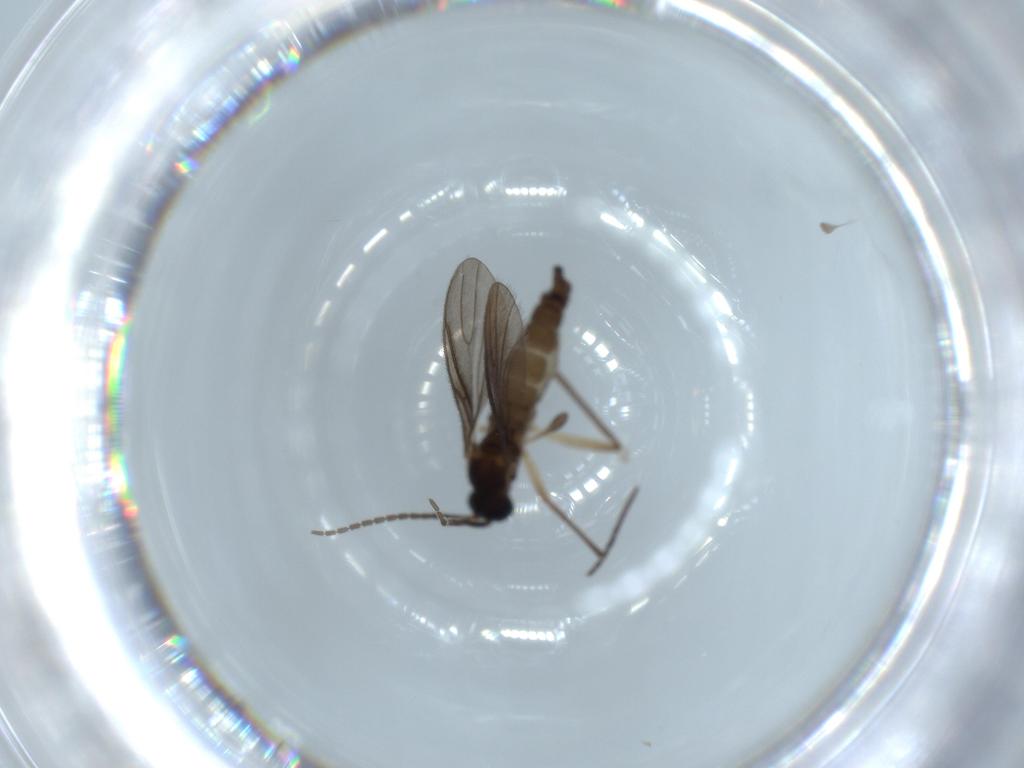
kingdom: Animalia
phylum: Arthropoda
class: Insecta
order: Diptera
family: Sciaridae
